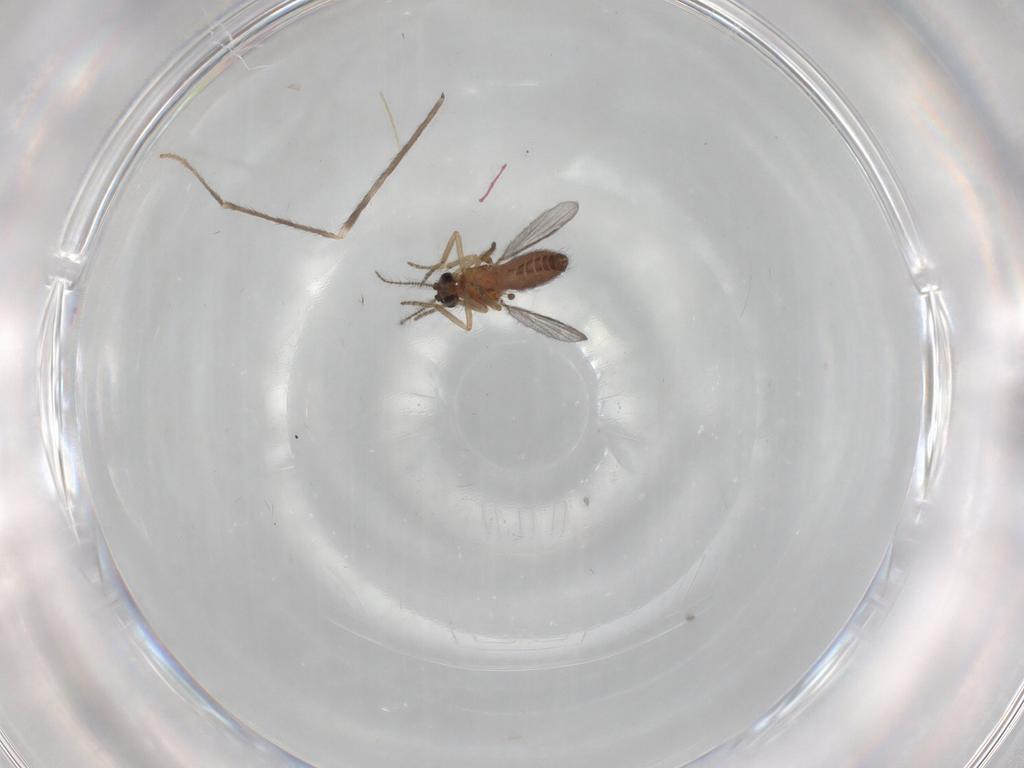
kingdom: Animalia
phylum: Arthropoda
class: Insecta
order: Diptera
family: Ceratopogonidae
